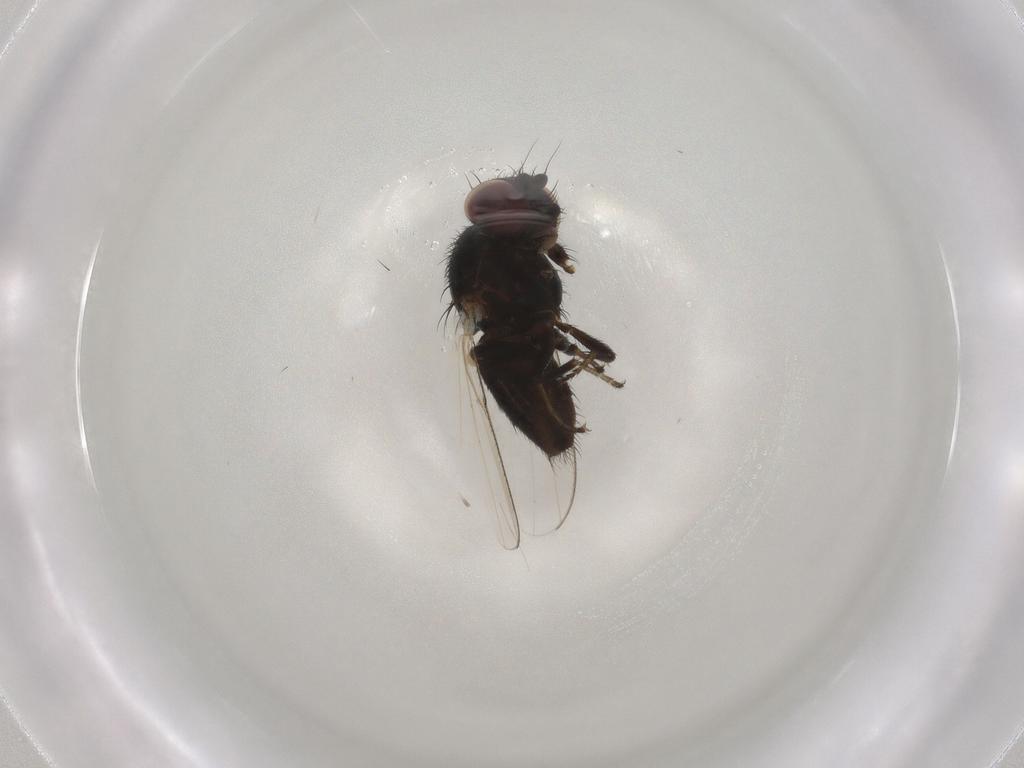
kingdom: Animalia
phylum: Arthropoda
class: Insecta
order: Diptera
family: Milichiidae
